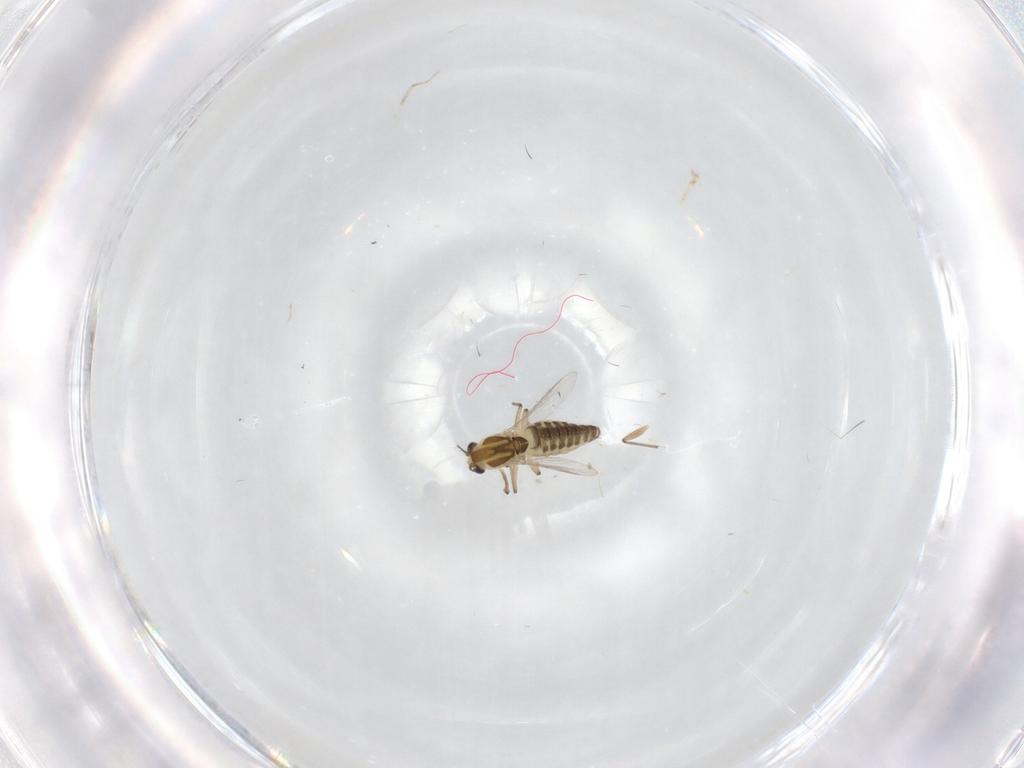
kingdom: Animalia
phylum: Arthropoda
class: Insecta
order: Diptera
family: Chironomidae
